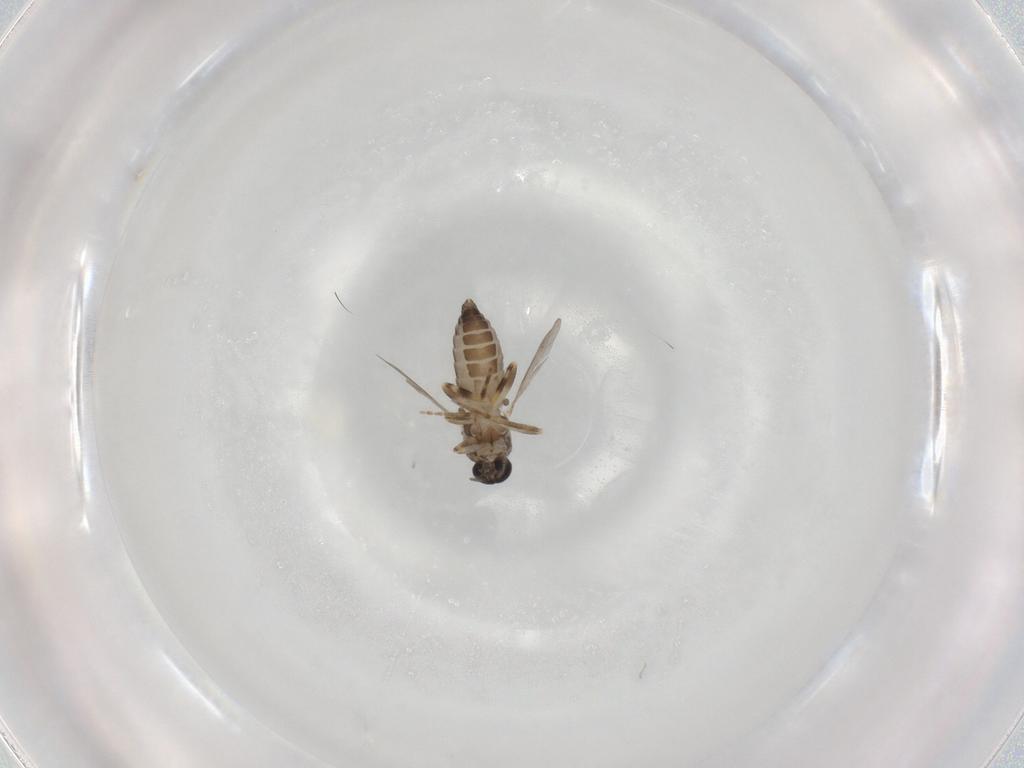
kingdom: Animalia
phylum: Arthropoda
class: Insecta
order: Diptera
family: Ceratopogonidae
